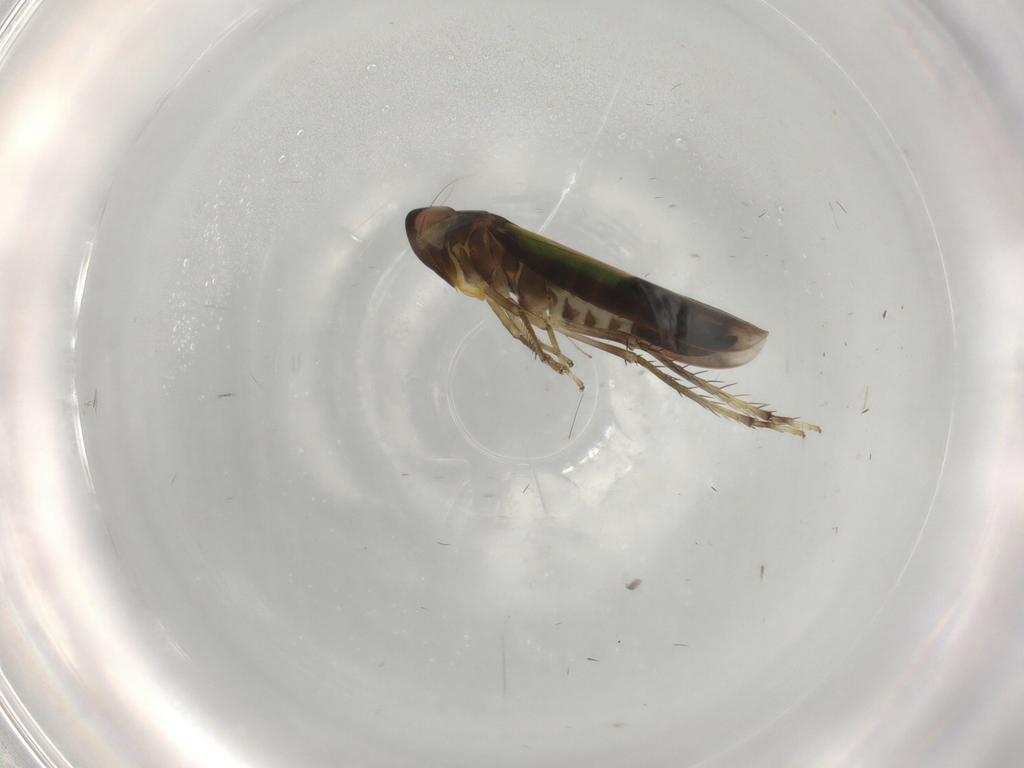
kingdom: Animalia
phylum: Arthropoda
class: Insecta
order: Hemiptera
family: Cicadellidae
